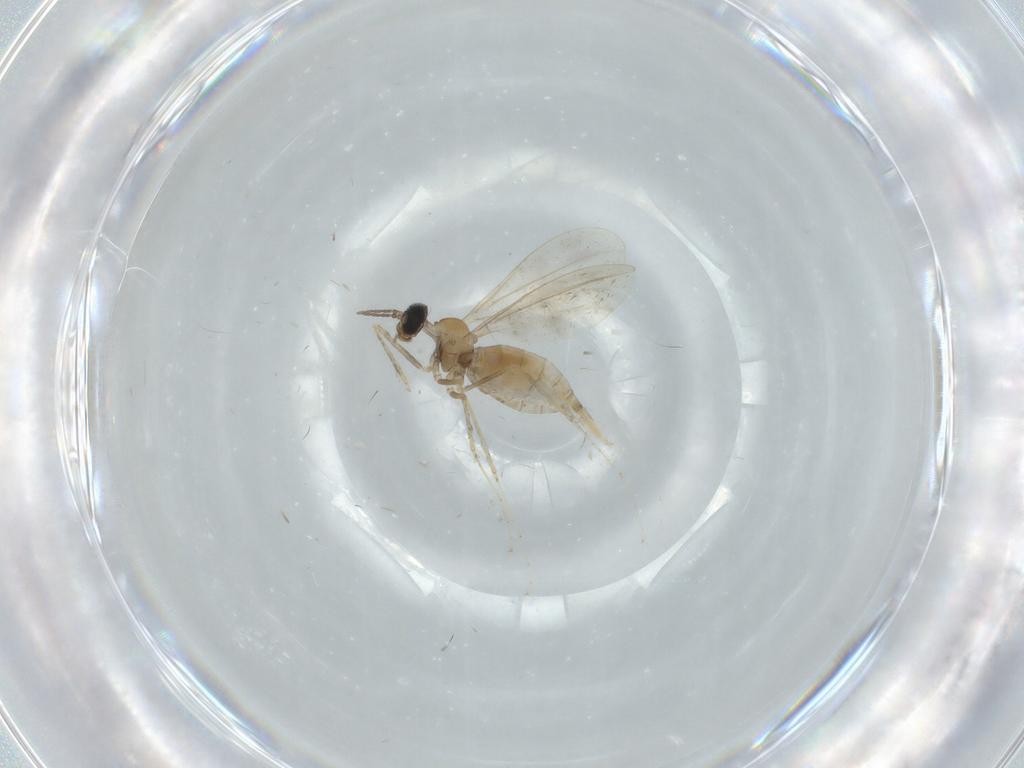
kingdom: Animalia
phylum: Arthropoda
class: Insecta
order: Diptera
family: Cecidomyiidae
